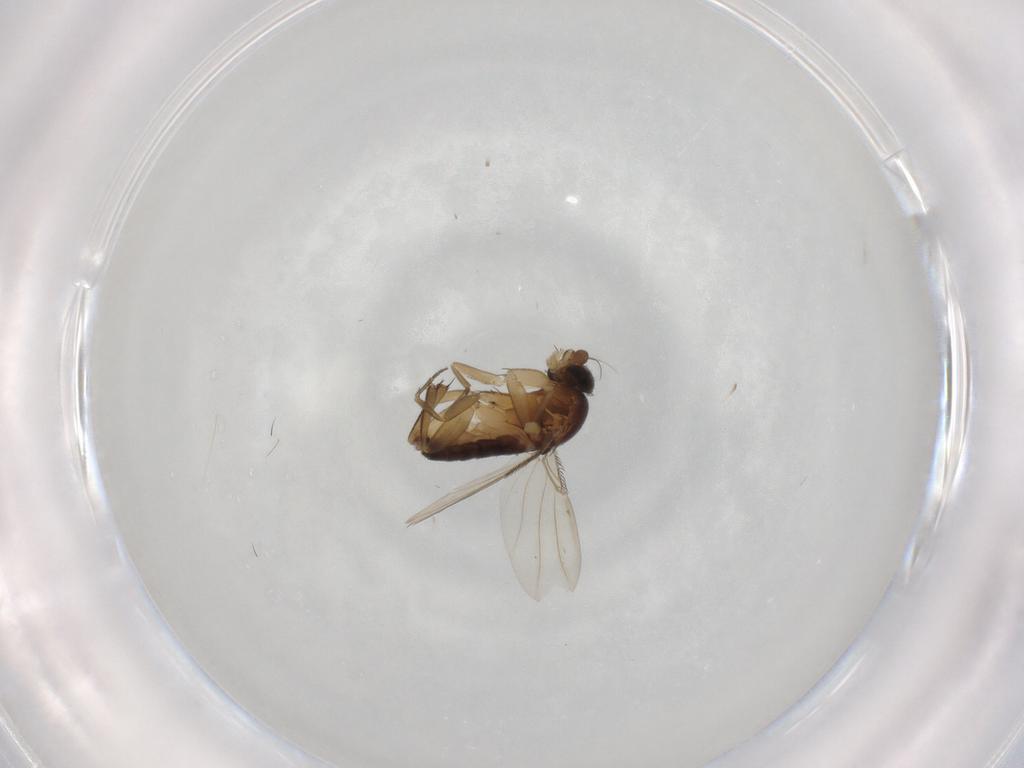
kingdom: Animalia
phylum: Arthropoda
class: Insecta
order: Diptera
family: Phoridae
